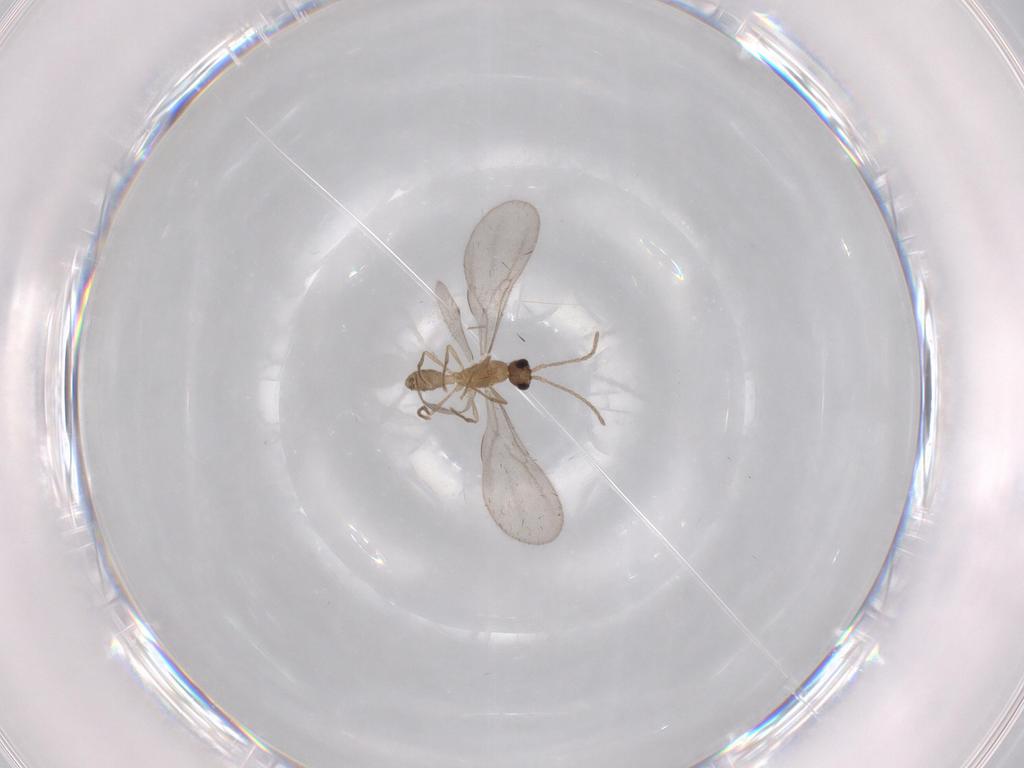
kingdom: Animalia
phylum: Arthropoda
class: Insecta
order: Hymenoptera
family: Formicidae
